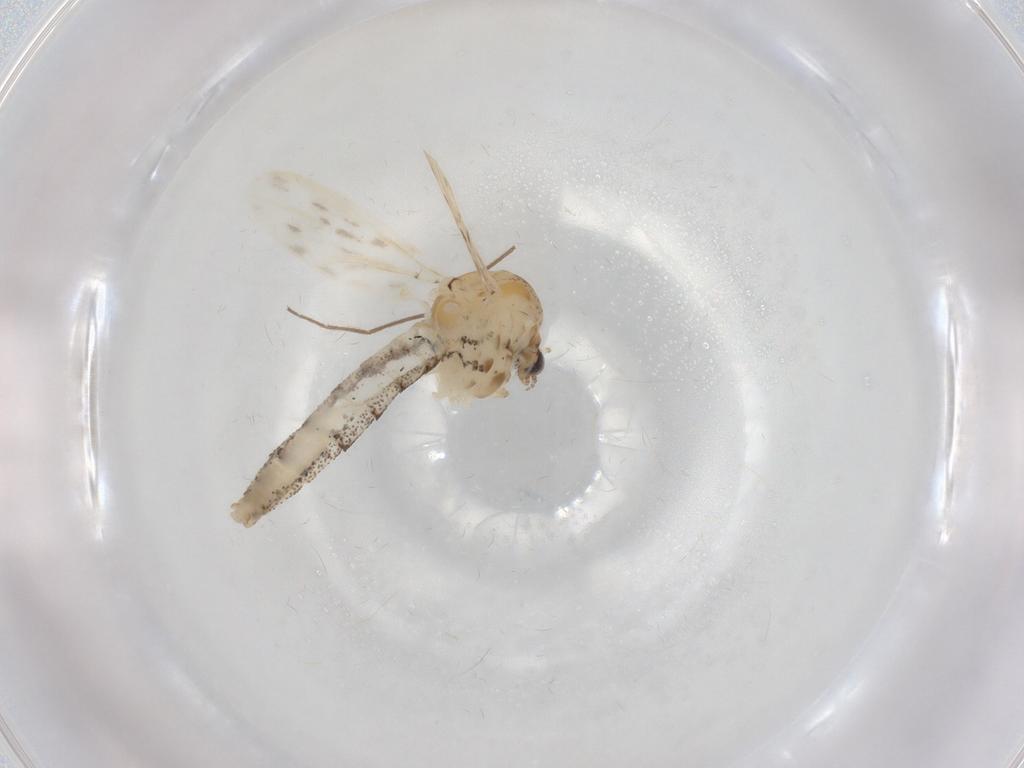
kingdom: Animalia
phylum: Arthropoda
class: Insecta
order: Diptera
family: Chaoboridae
